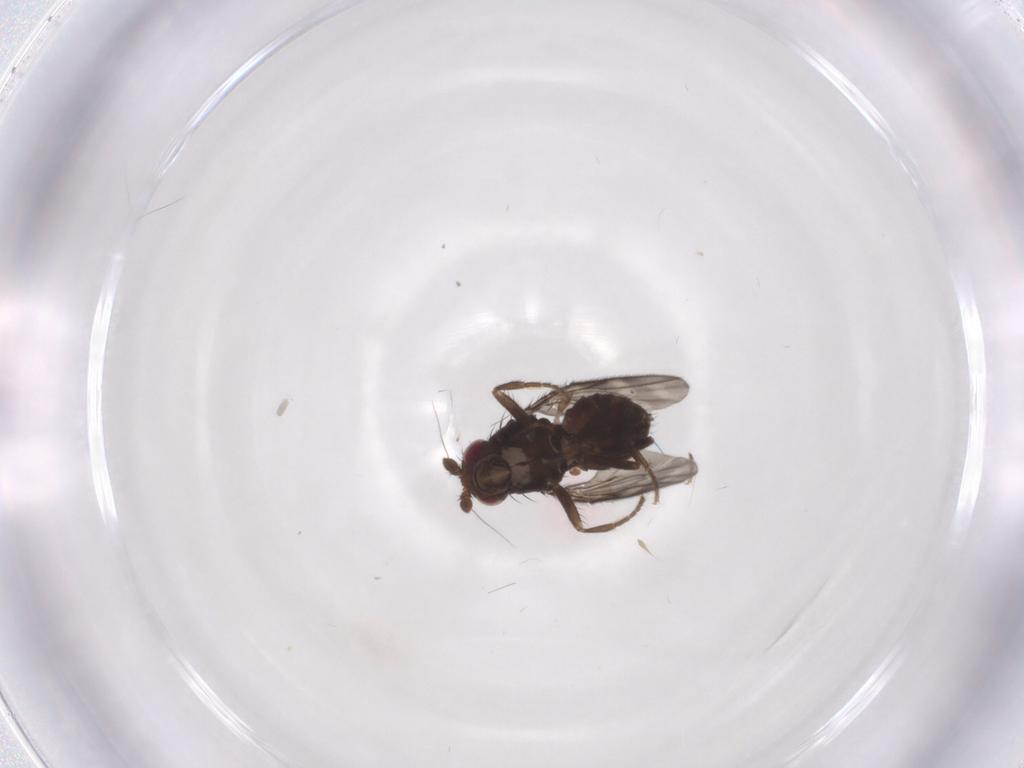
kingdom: Animalia
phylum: Arthropoda
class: Insecta
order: Diptera
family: Sphaeroceridae
